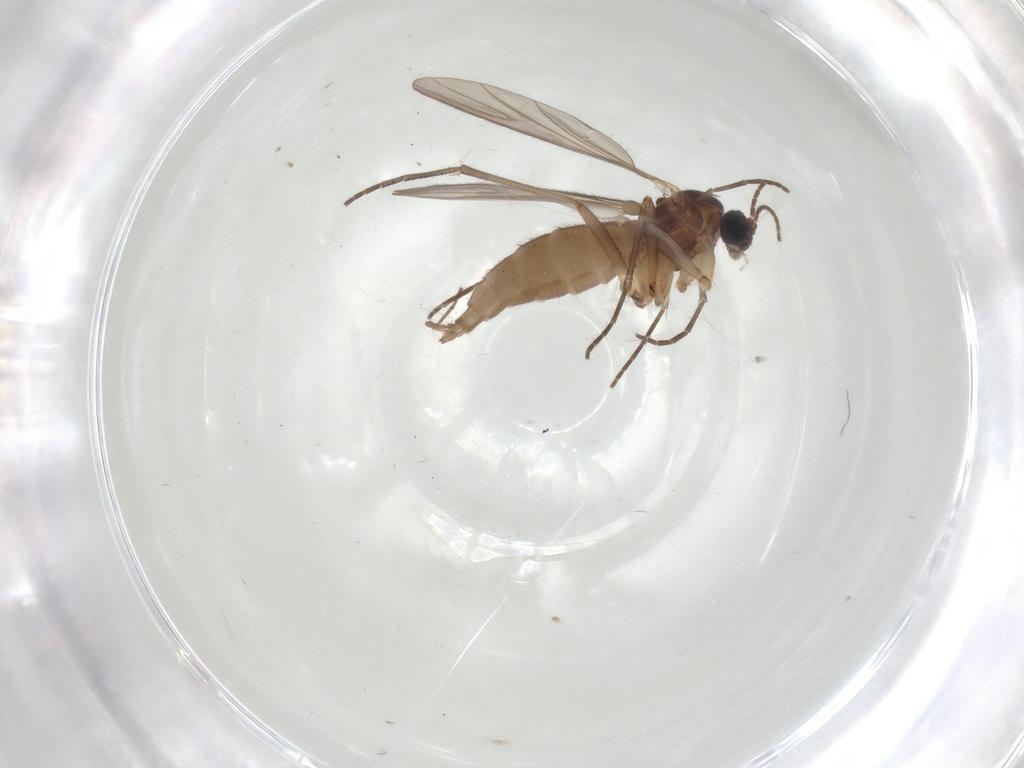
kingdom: Animalia
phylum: Arthropoda
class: Insecta
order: Diptera
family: Sciaridae
